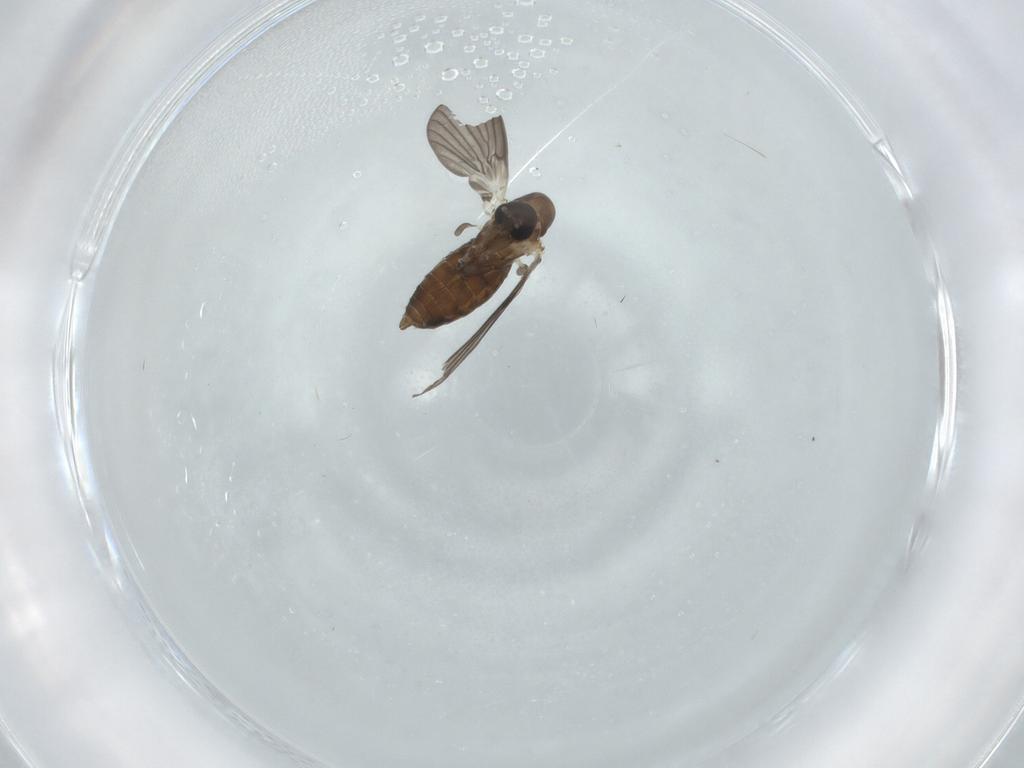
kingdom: Animalia
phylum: Arthropoda
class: Insecta
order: Diptera
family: Psychodidae
